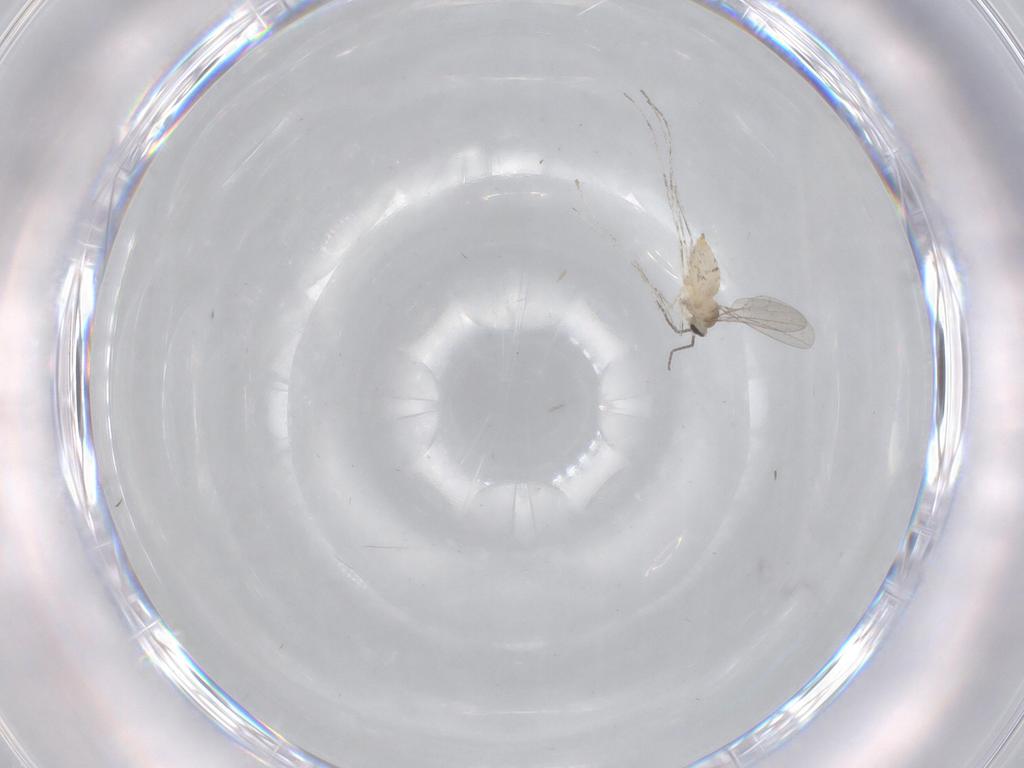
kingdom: Animalia
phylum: Arthropoda
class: Insecta
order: Diptera
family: Cecidomyiidae
